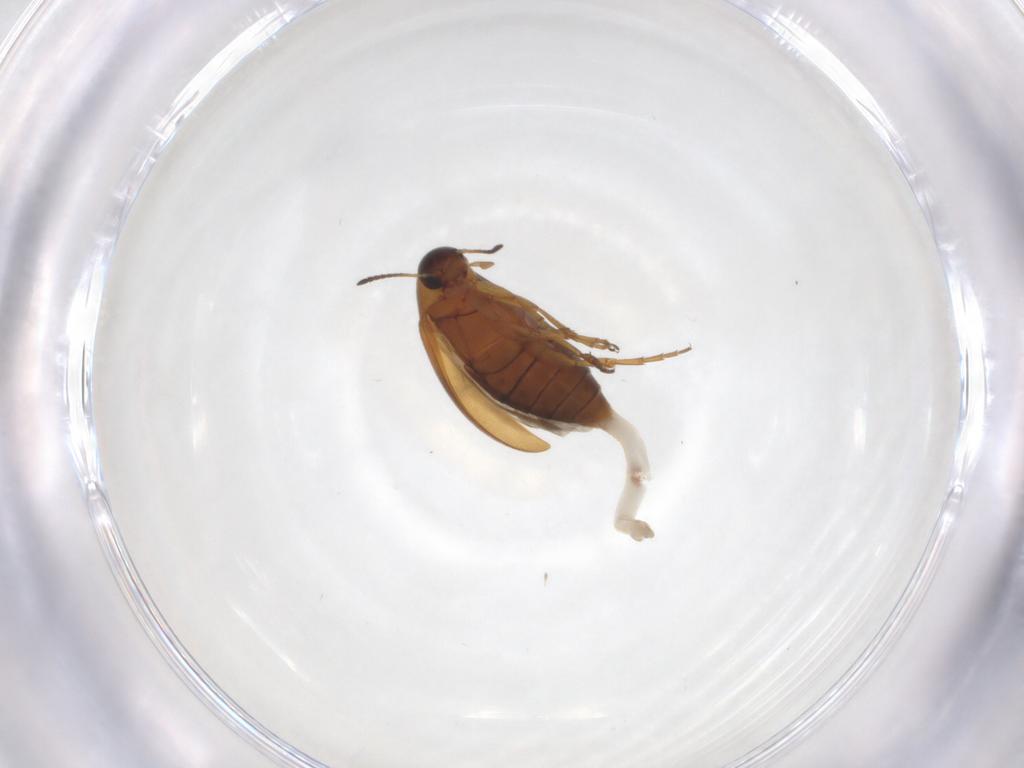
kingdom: Animalia
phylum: Arthropoda
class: Insecta
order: Coleoptera
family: Scraptiidae
